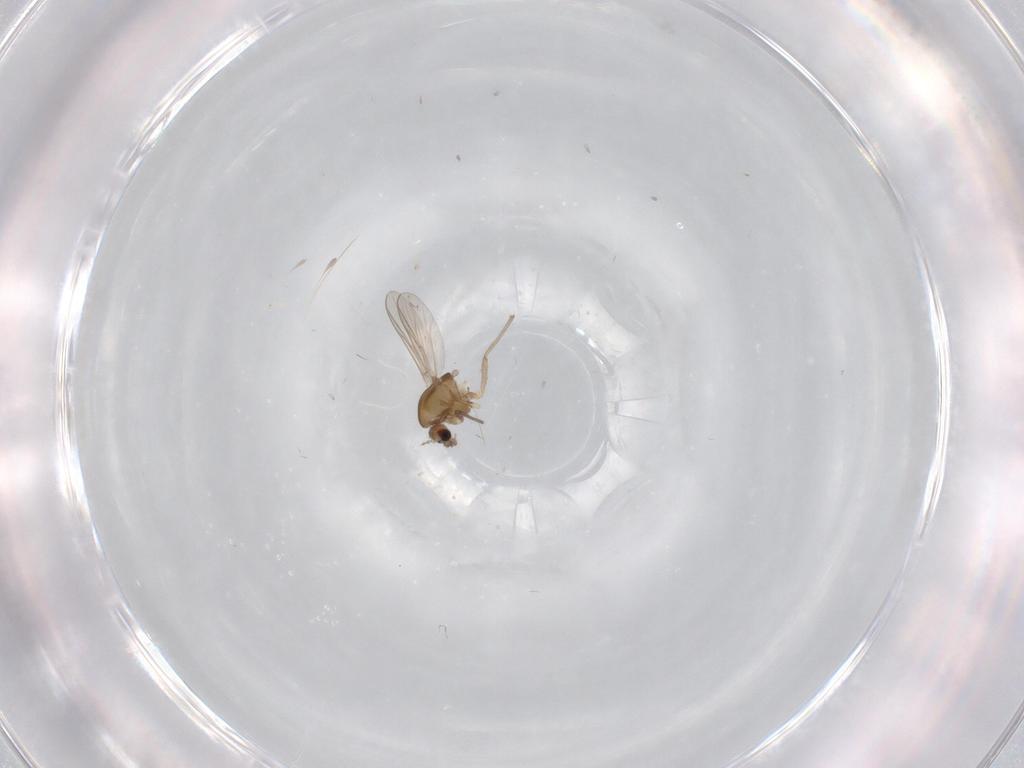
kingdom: Animalia
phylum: Arthropoda
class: Insecta
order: Diptera
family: Chironomidae
